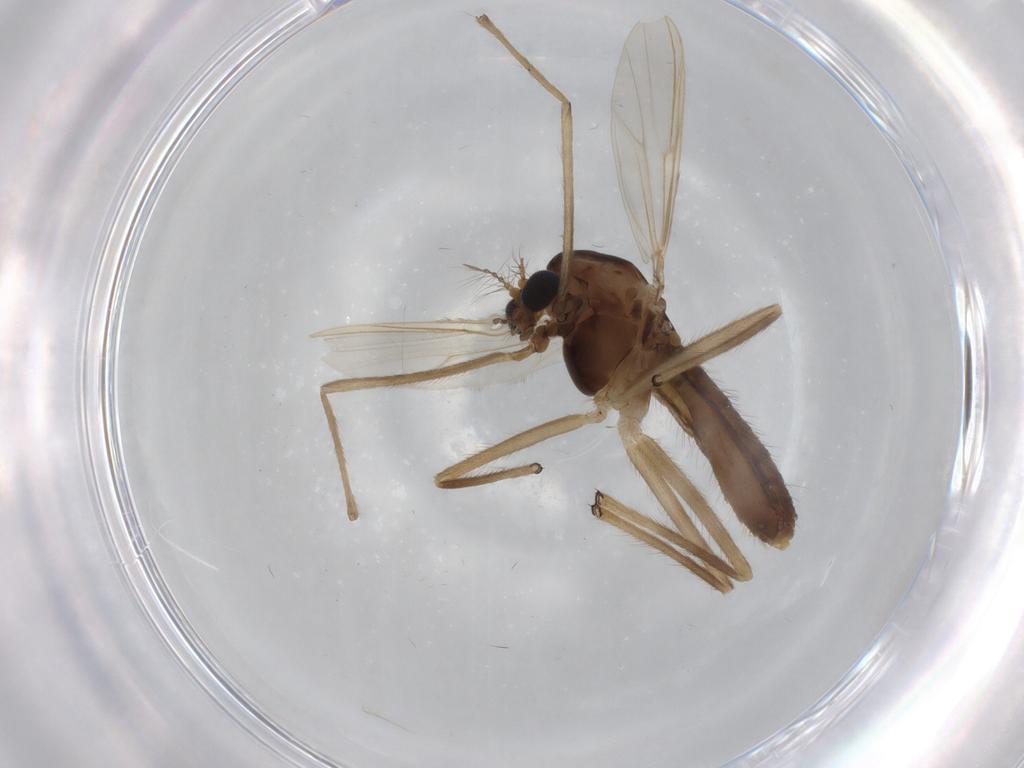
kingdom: Animalia
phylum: Arthropoda
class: Insecta
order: Diptera
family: Chironomidae
